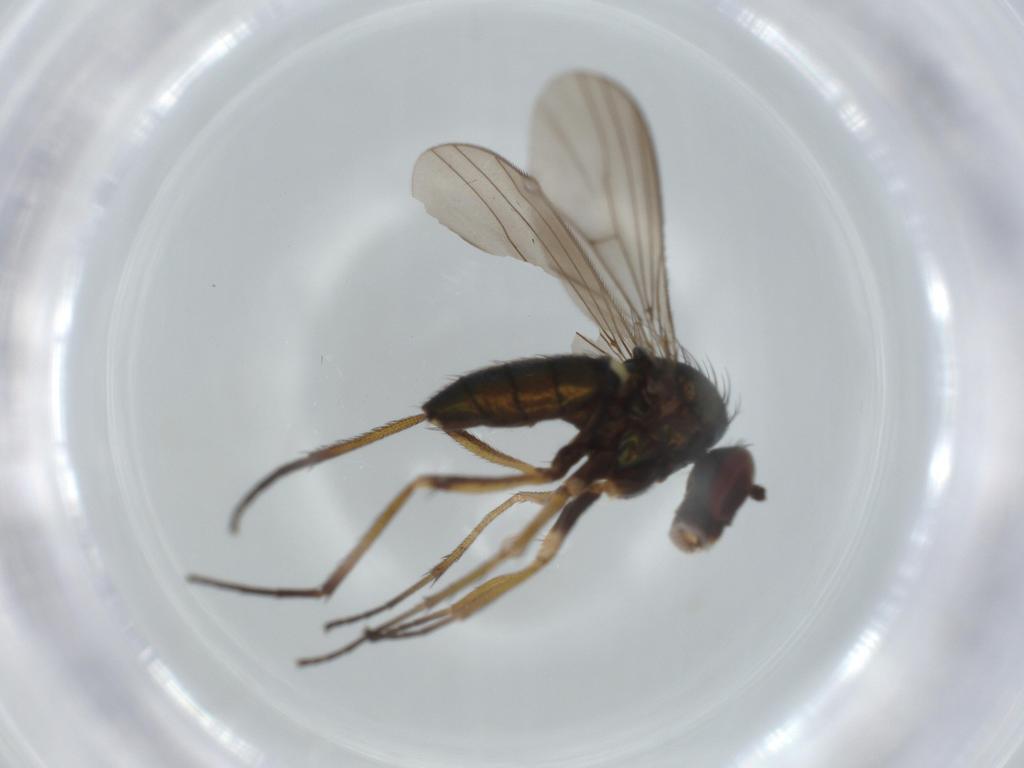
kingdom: Animalia
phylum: Arthropoda
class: Insecta
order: Diptera
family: Dolichopodidae
